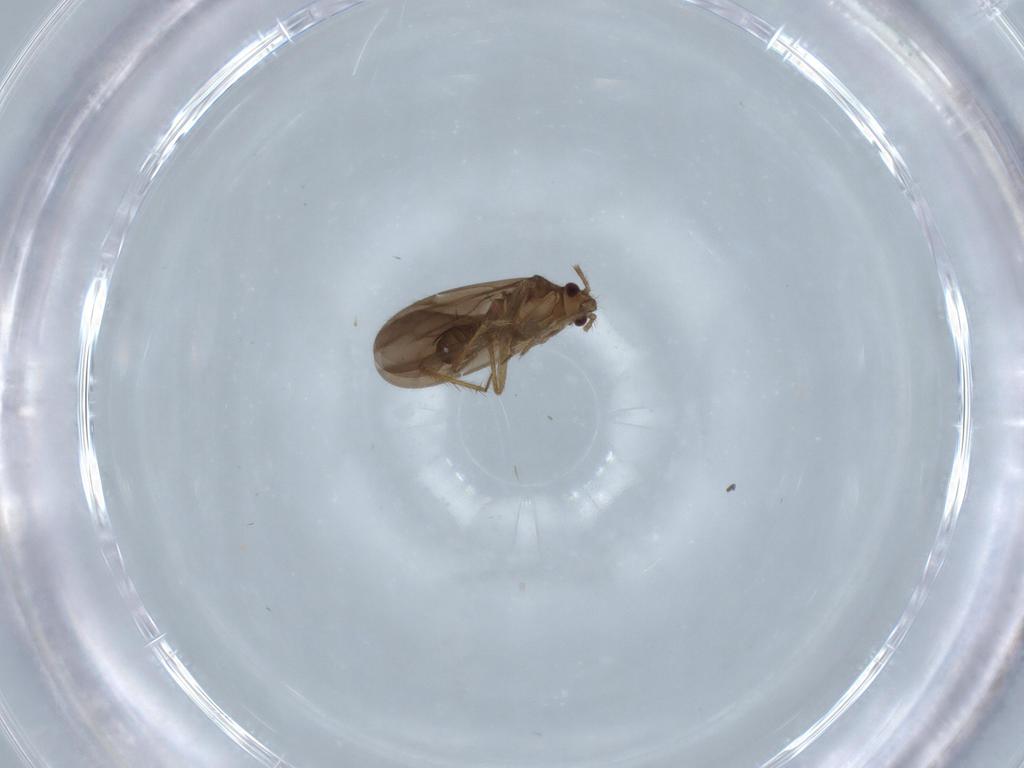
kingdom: Animalia
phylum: Arthropoda
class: Insecta
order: Hemiptera
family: Ceratocombidae
